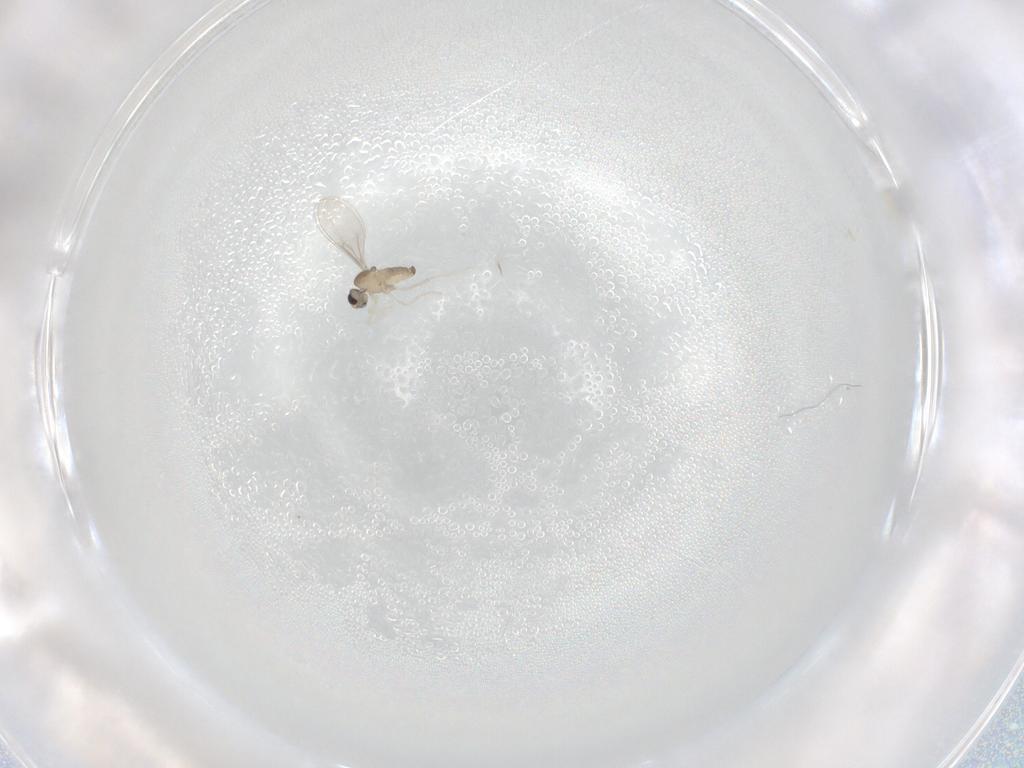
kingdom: Animalia
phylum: Arthropoda
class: Insecta
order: Diptera
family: Cecidomyiidae
